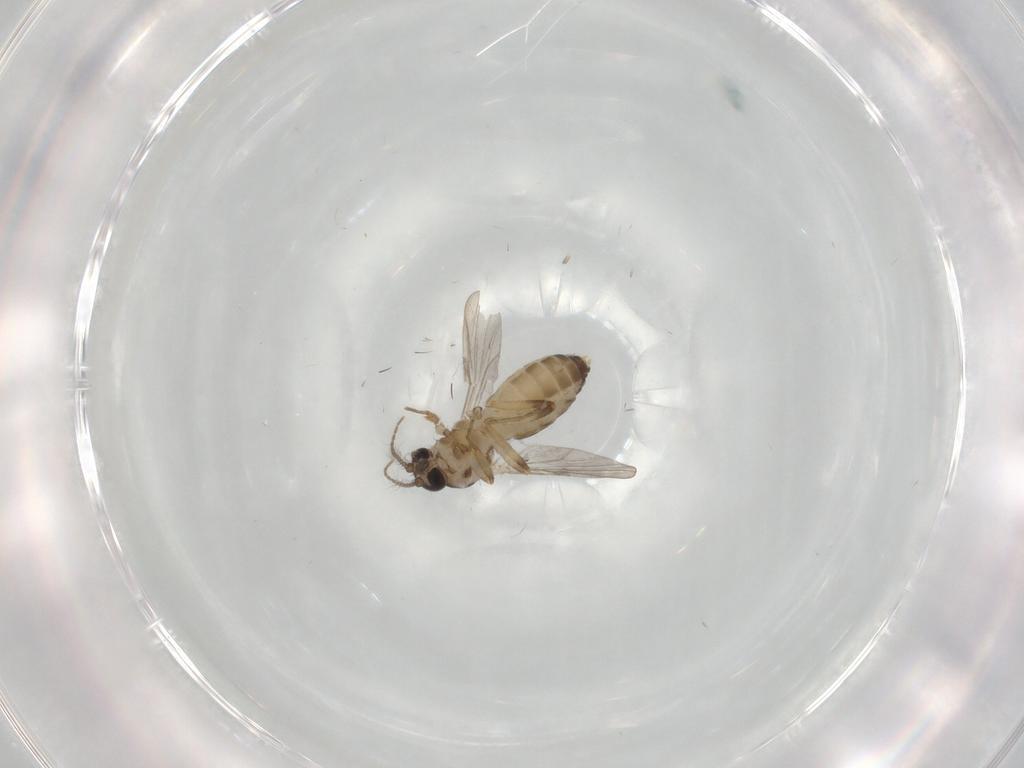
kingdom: Animalia
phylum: Arthropoda
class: Insecta
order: Diptera
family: Ceratopogonidae
